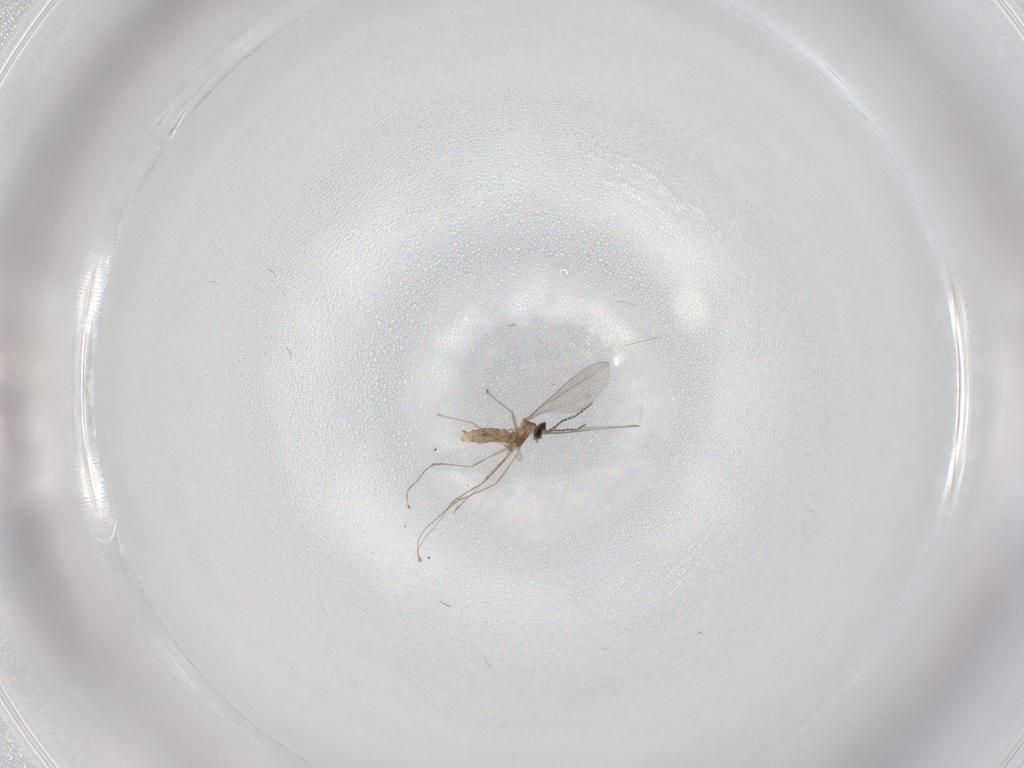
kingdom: Animalia
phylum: Arthropoda
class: Insecta
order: Diptera
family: Cecidomyiidae
